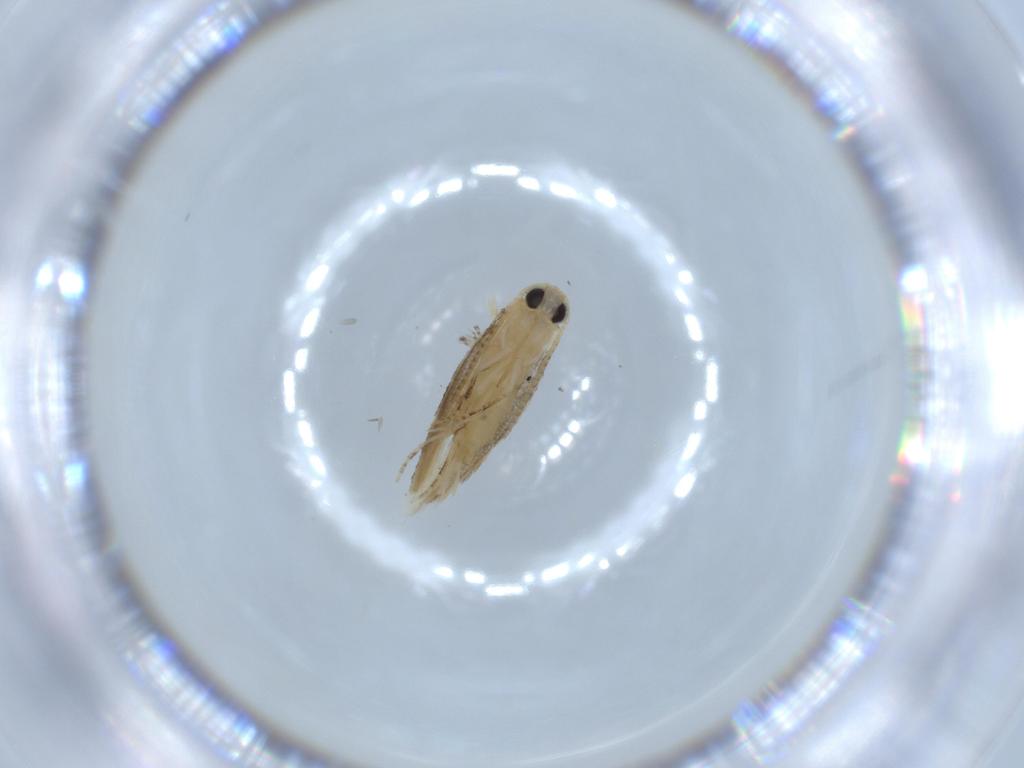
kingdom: Animalia
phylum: Arthropoda
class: Insecta
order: Lepidoptera
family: Bucculatricidae
